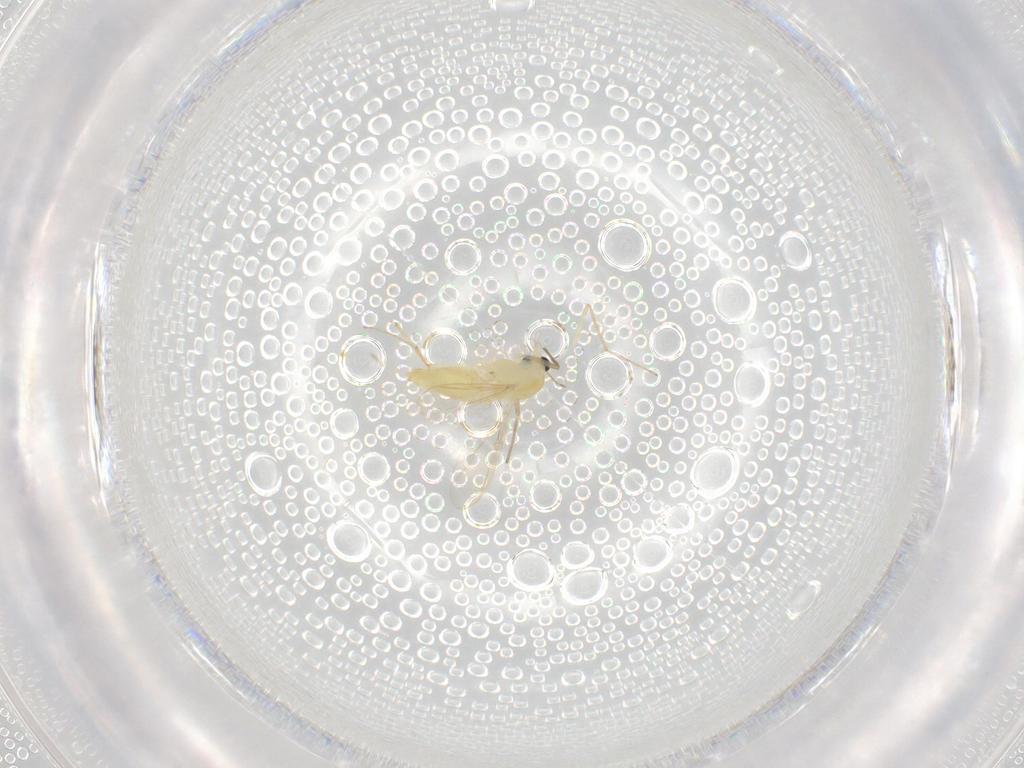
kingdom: Animalia
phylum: Arthropoda
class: Insecta
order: Diptera
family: Chironomidae
